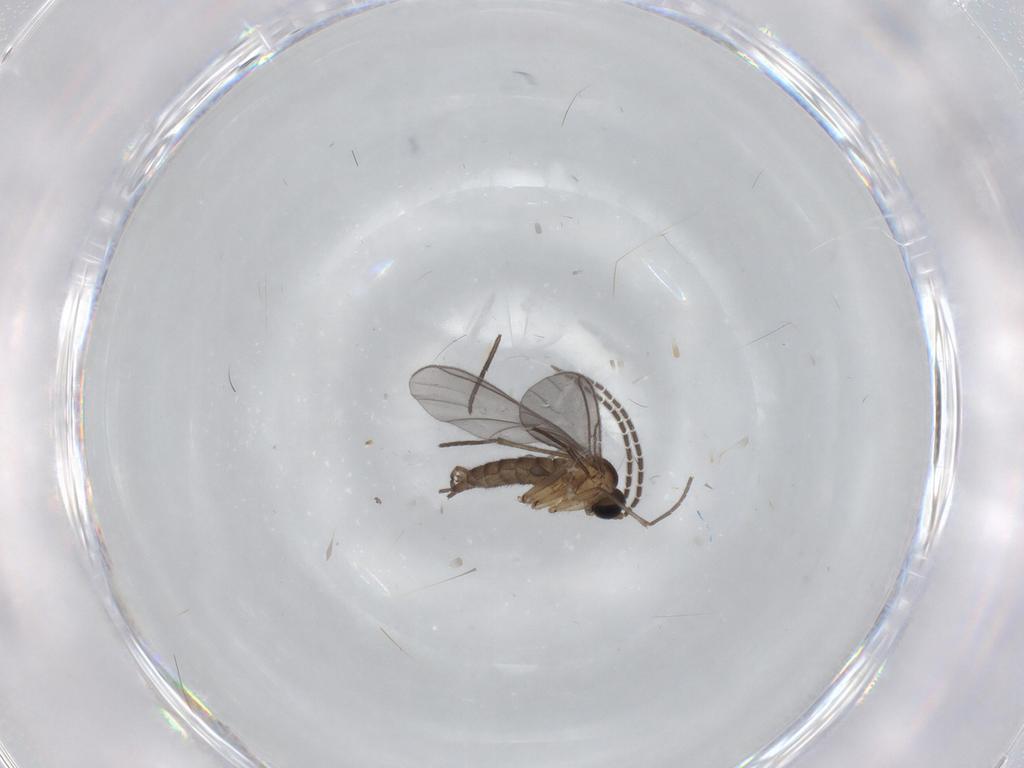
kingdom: Animalia
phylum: Arthropoda
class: Insecta
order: Diptera
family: Sciaridae
